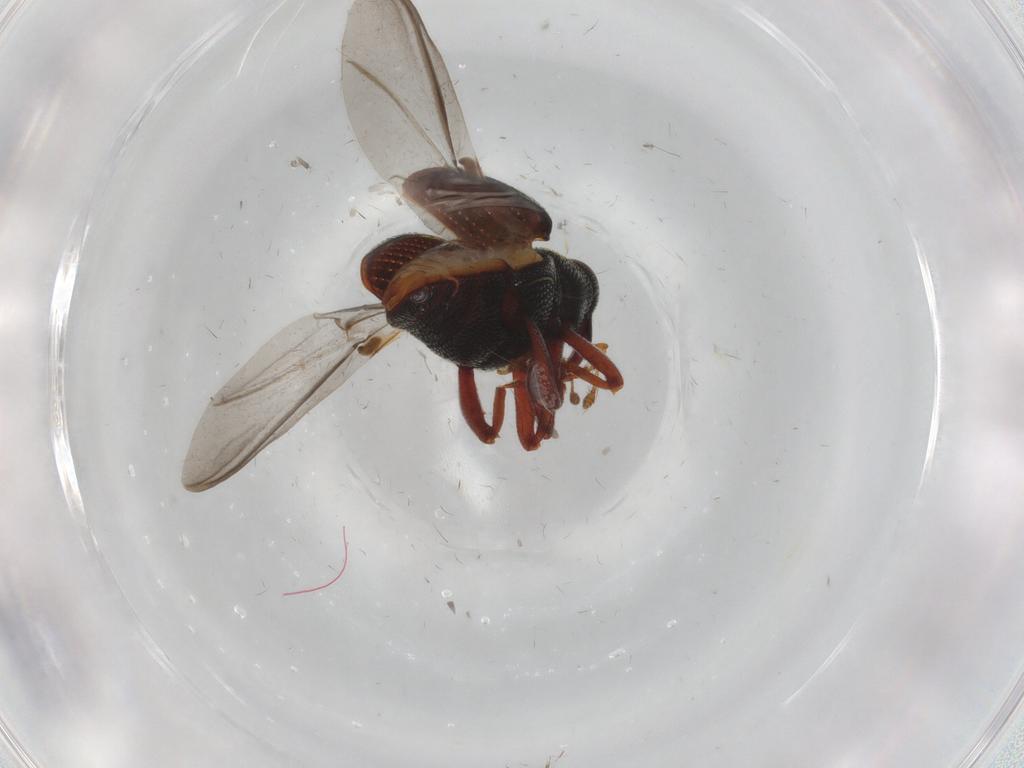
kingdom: Animalia
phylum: Arthropoda
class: Insecta
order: Coleoptera
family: Curculionidae
